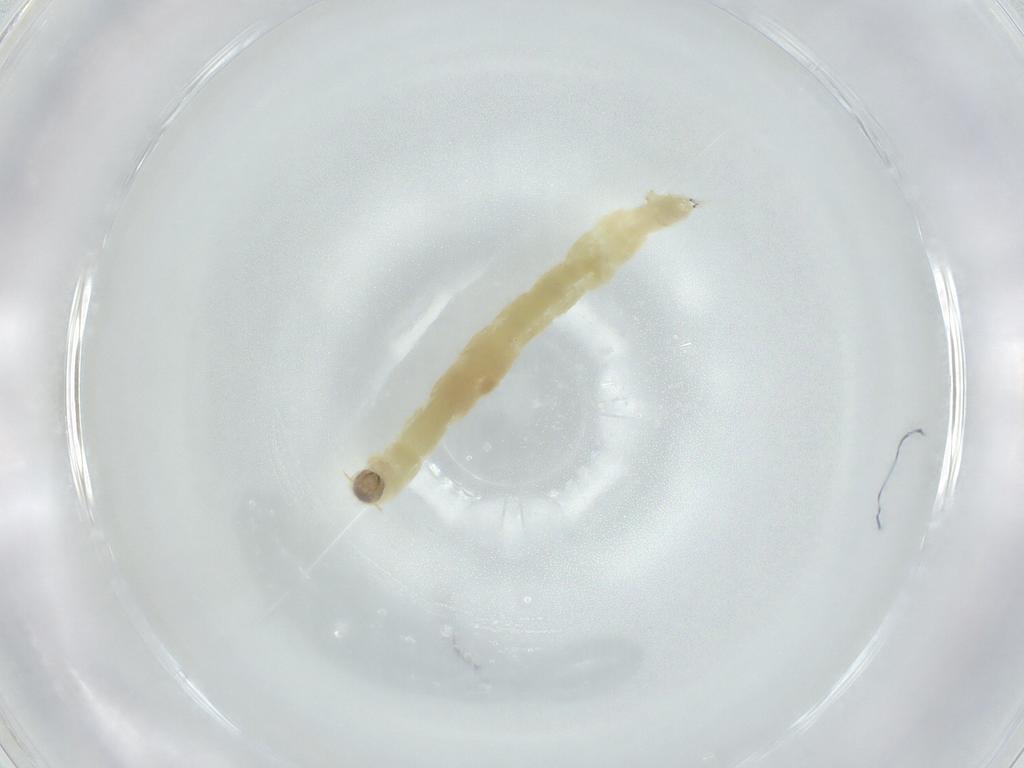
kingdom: Animalia
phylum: Arthropoda
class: Insecta
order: Diptera
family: Chironomidae
